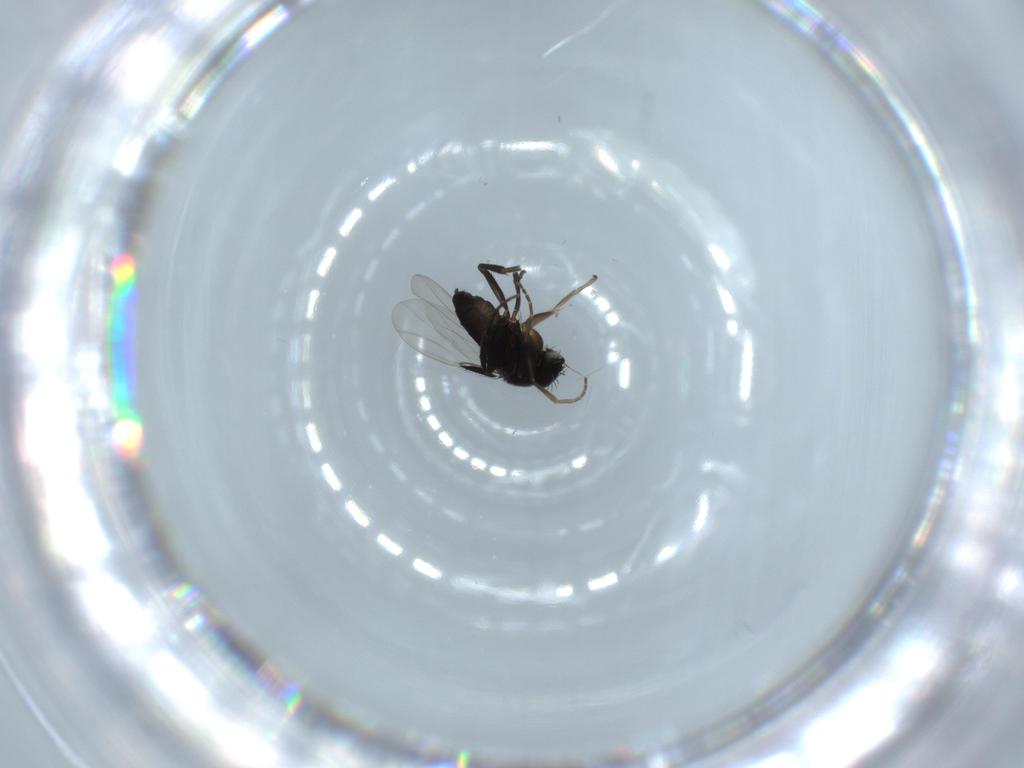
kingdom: Animalia
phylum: Arthropoda
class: Insecta
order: Diptera
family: Phoridae
